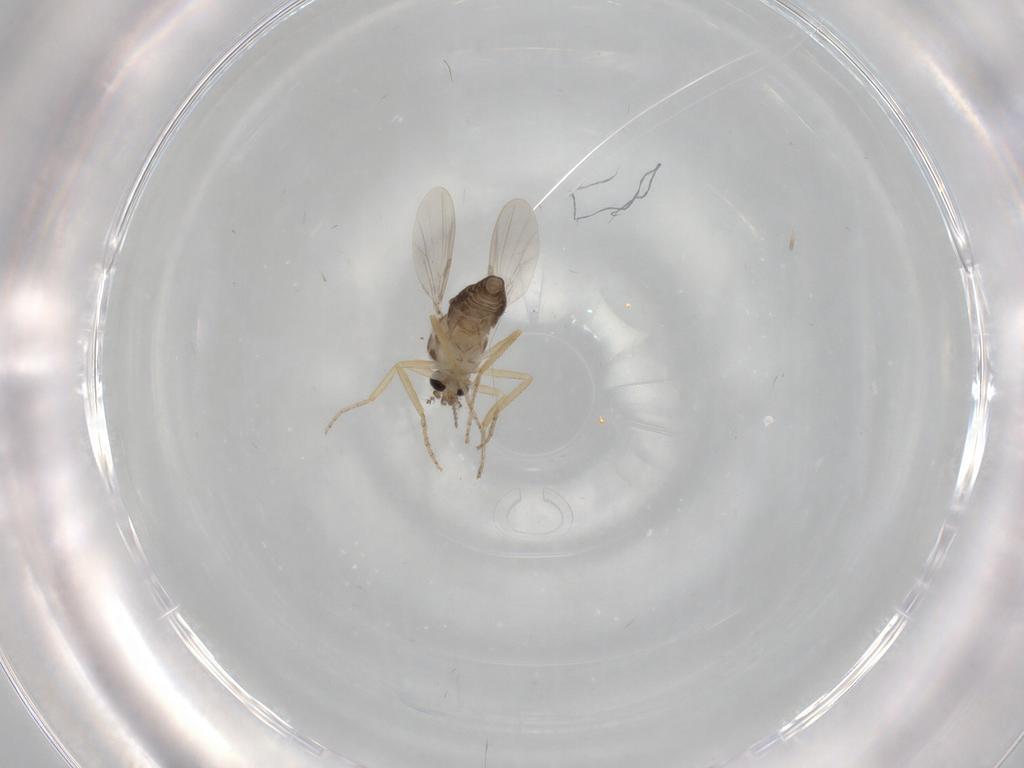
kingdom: Animalia
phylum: Arthropoda
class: Insecta
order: Diptera
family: Ceratopogonidae
